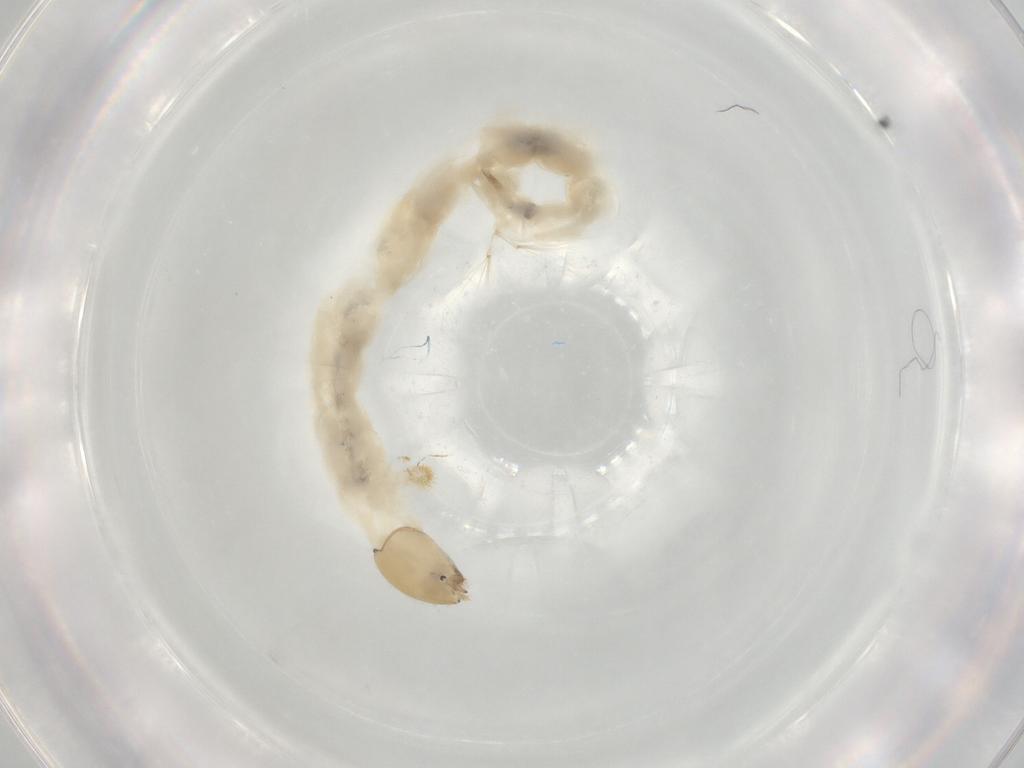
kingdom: Animalia
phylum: Arthropoda
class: Insecta
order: Diptera
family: Chironomidae
